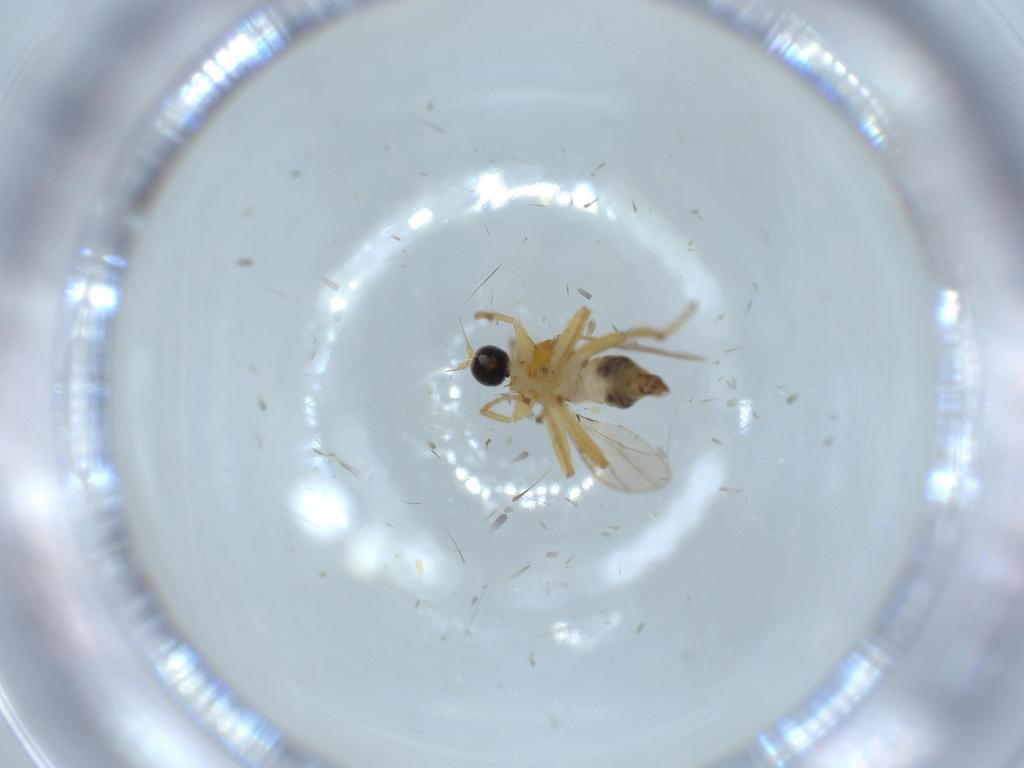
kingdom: Animalia
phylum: Arthropoda
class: Insecta
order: Diptera
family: Hybotidae
